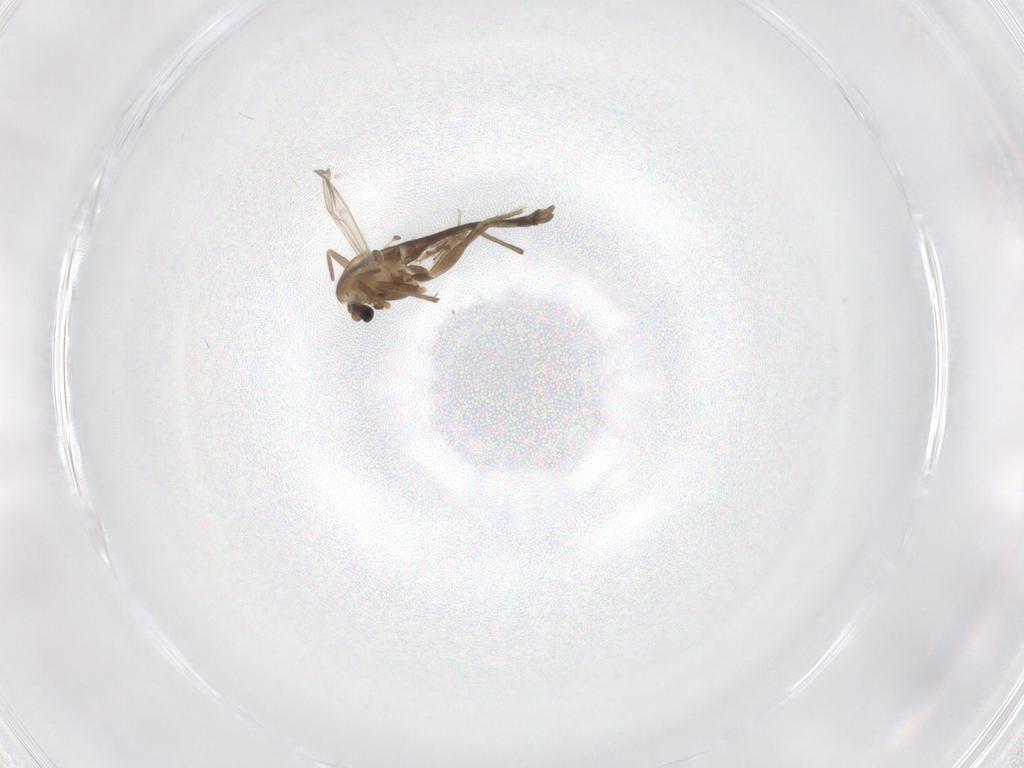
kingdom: Animalia
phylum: Arthropoda
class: Insecta
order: Diptera
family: Chironomidae
